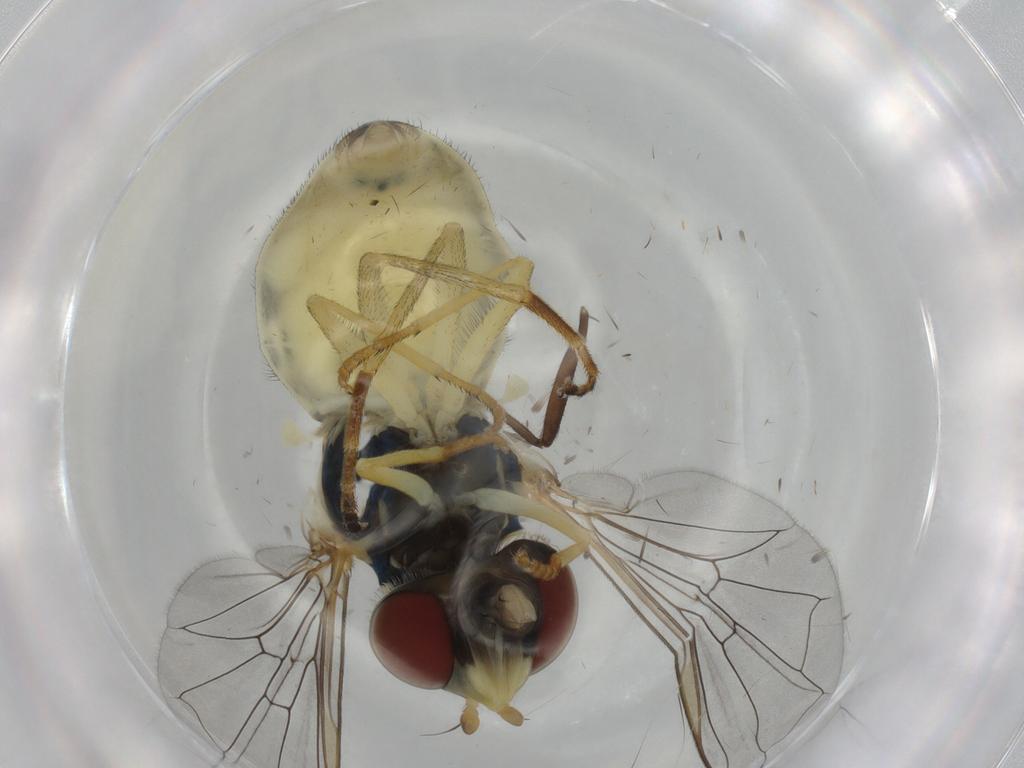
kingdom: Animalia
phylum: Arthropoda
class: Insecta
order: Diptera
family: Syrphidae
